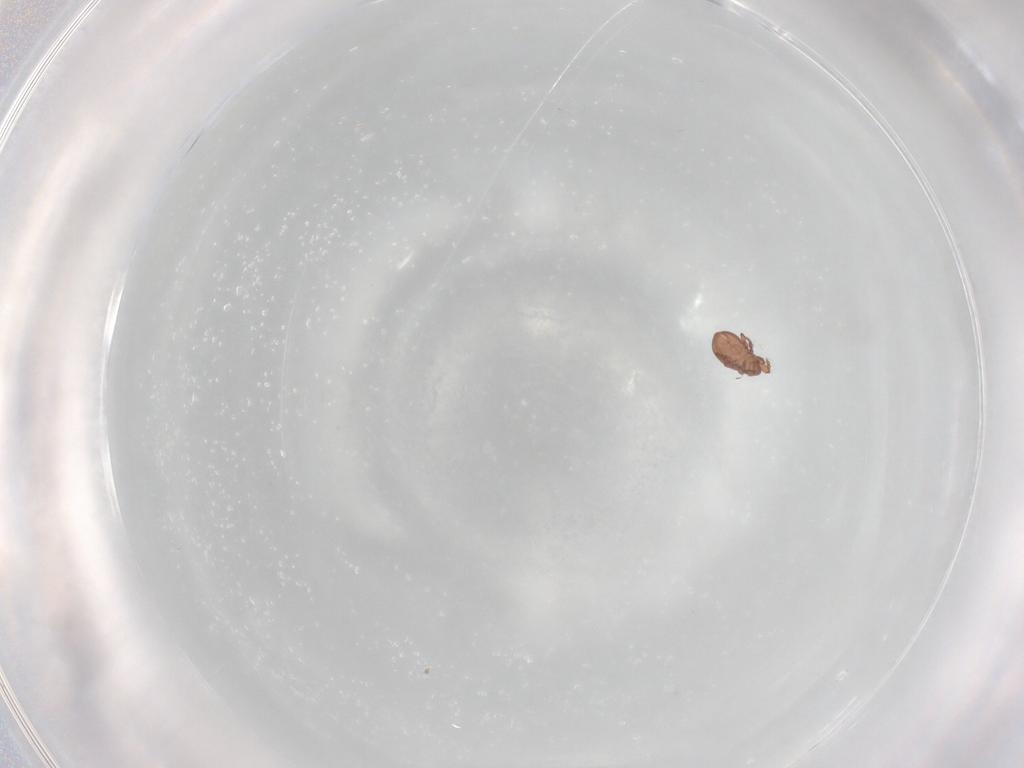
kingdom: Animalia
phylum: Arthropoda
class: Arachnida
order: Sarcoptiformes
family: Eremaeidae
